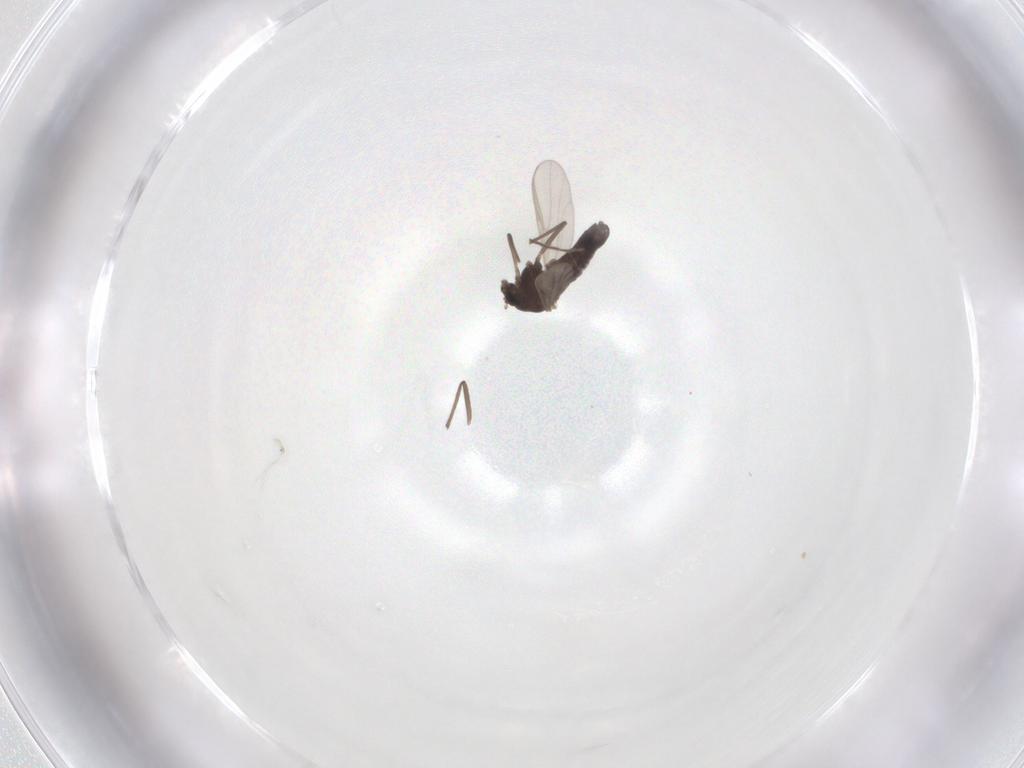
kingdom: Animalia
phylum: Arthropoda
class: Insecta
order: Diptera
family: Chironomidae
